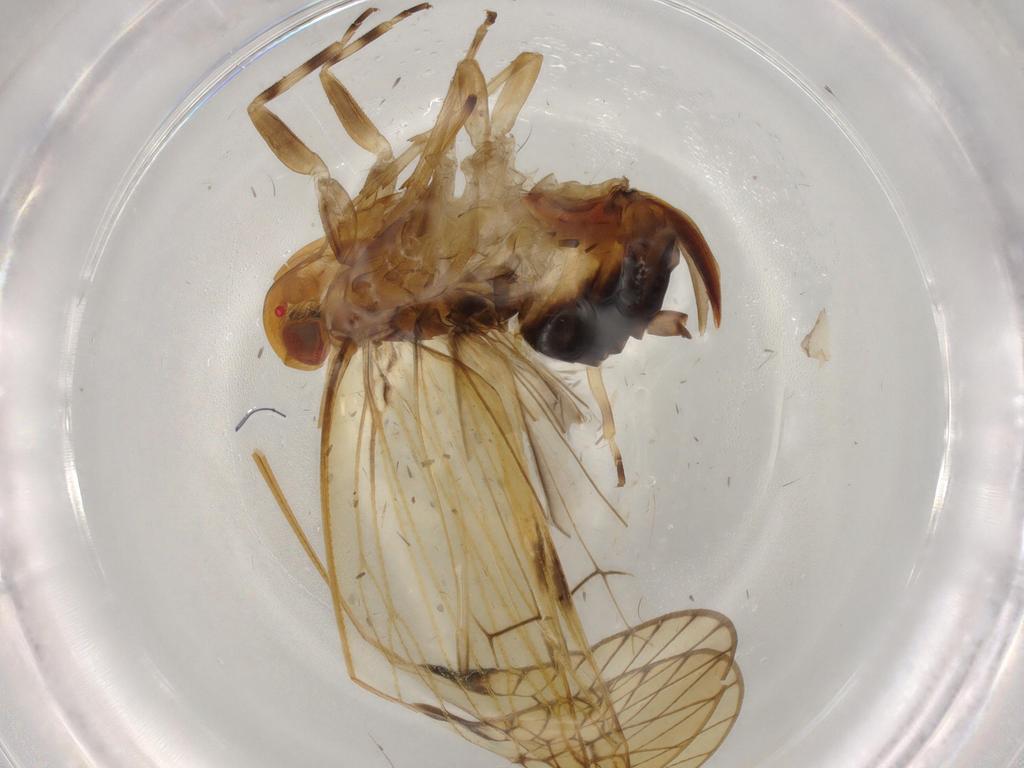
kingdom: Animalia
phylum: Arthropoda
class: Insecta
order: Hemiptera
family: Cixiidae
